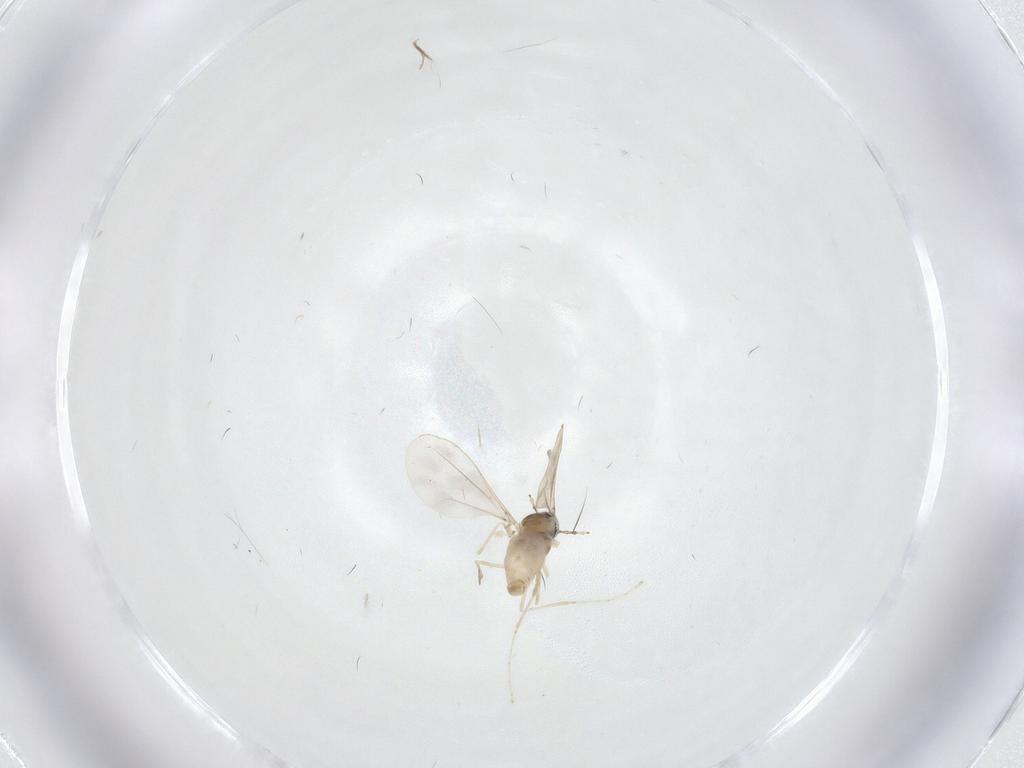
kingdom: Animalia
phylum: Arthropoda
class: Insecta
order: Diptera
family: Limoniidae
